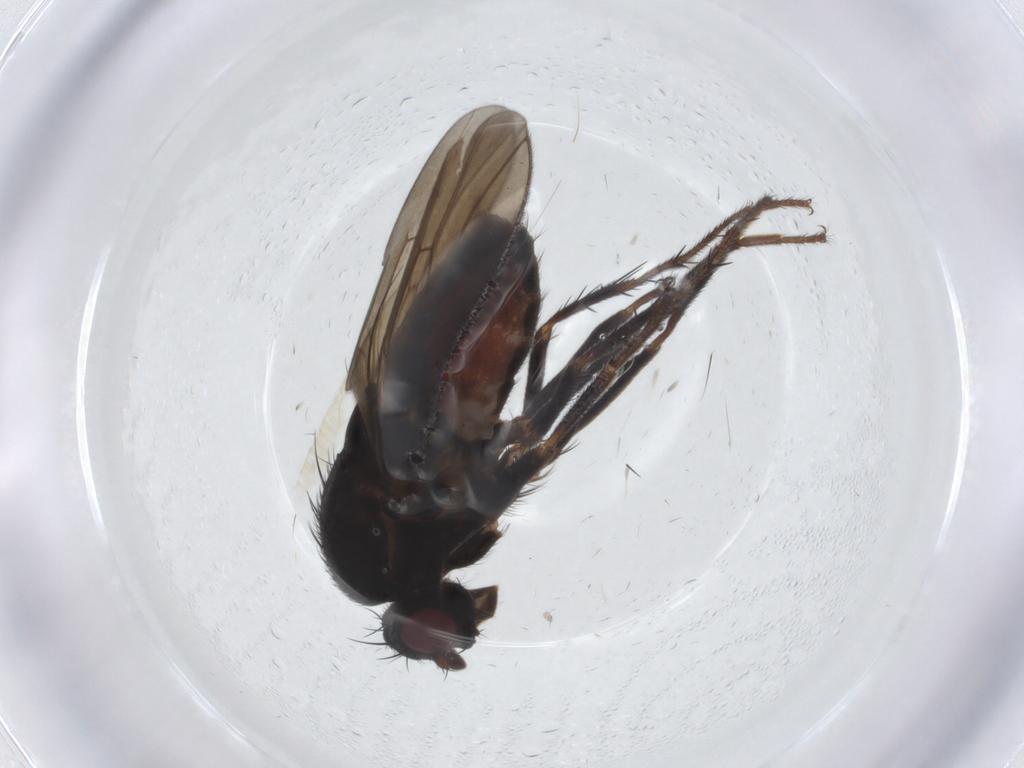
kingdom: Animalia
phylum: Arthropoda
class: Insecta
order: Diptera
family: Sphaeroceridae
